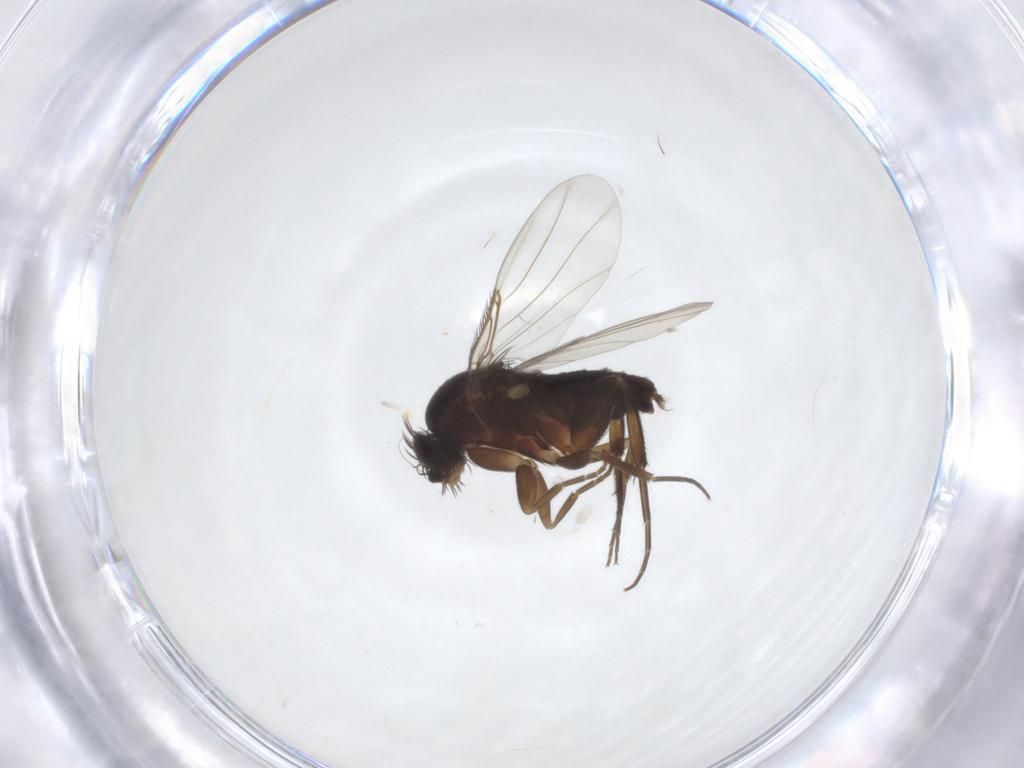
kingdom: Animalia
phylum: Arthropoda
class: Insecta
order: Diptera
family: Phoridae
